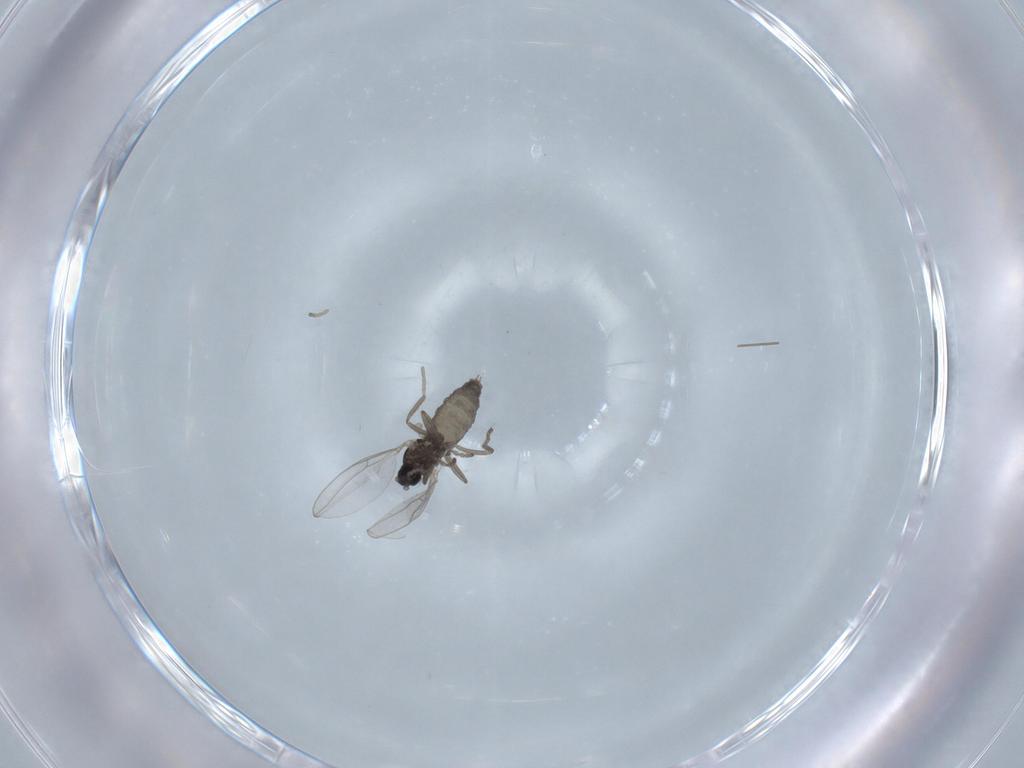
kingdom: Animalia
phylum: Arthropoda
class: Insecta
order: Diptera
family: Cecidomyiidae
